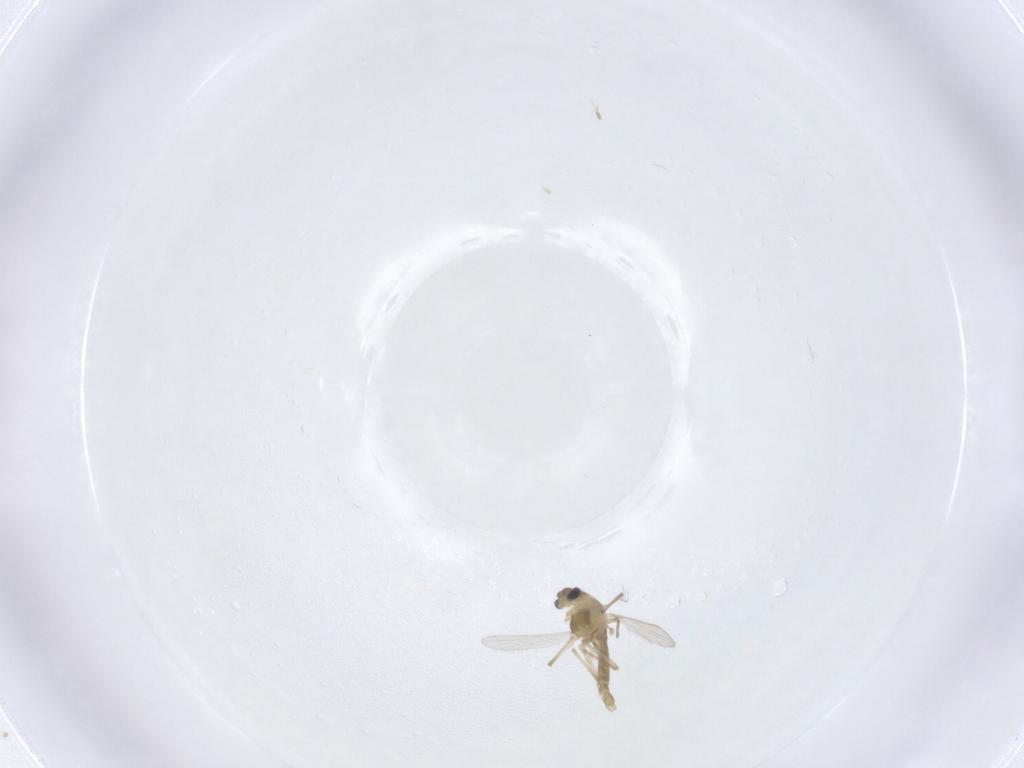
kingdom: Animalia
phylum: Arthropoda
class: Insecta
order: Diptera
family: Chironomidae
